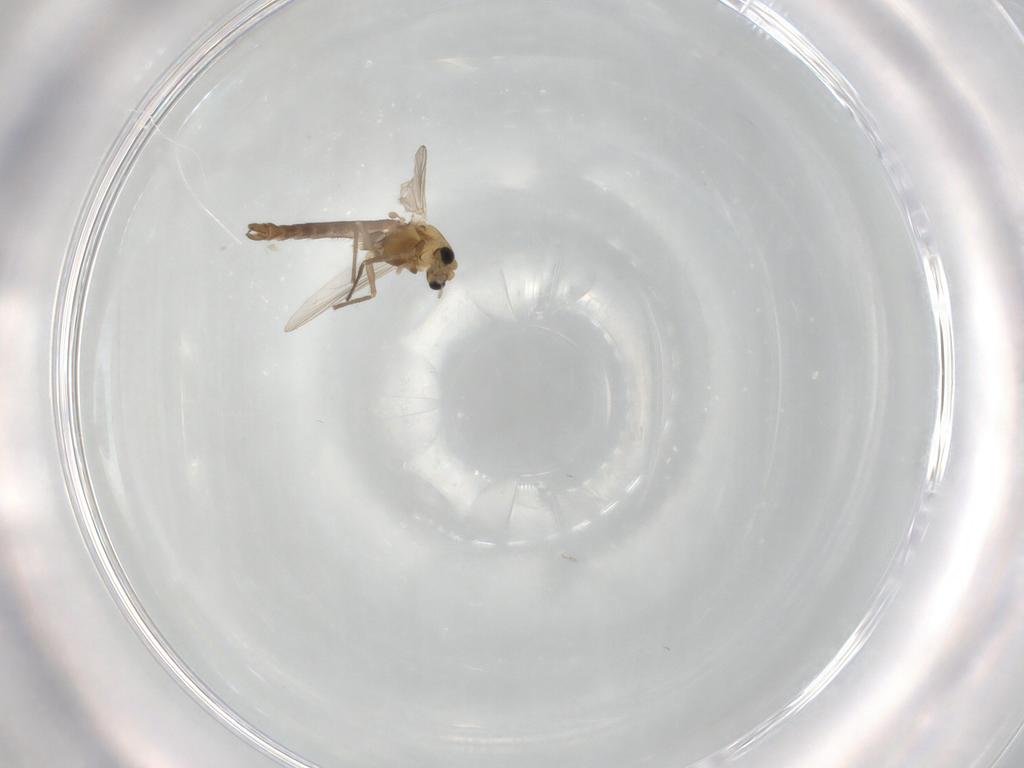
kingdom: Animalia
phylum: Arthropoda
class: Insecta
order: Diptera
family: Chironomidae
